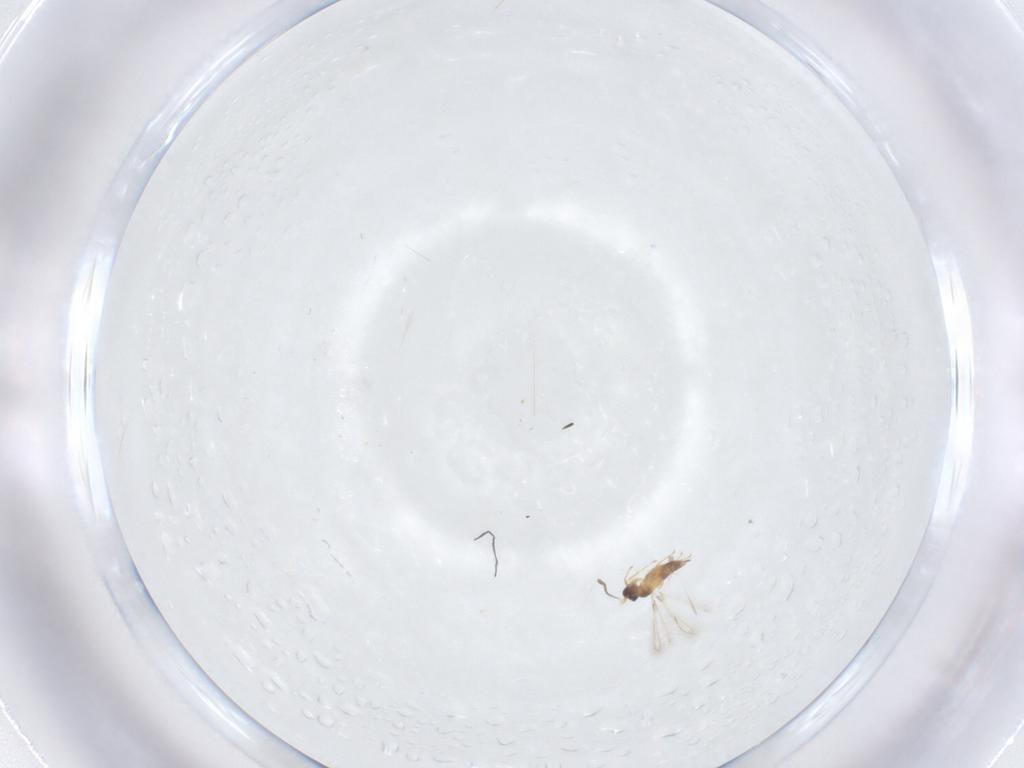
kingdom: Animalia
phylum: Arthropoda
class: Insecta
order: Hymenoptera
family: Mymaridae
